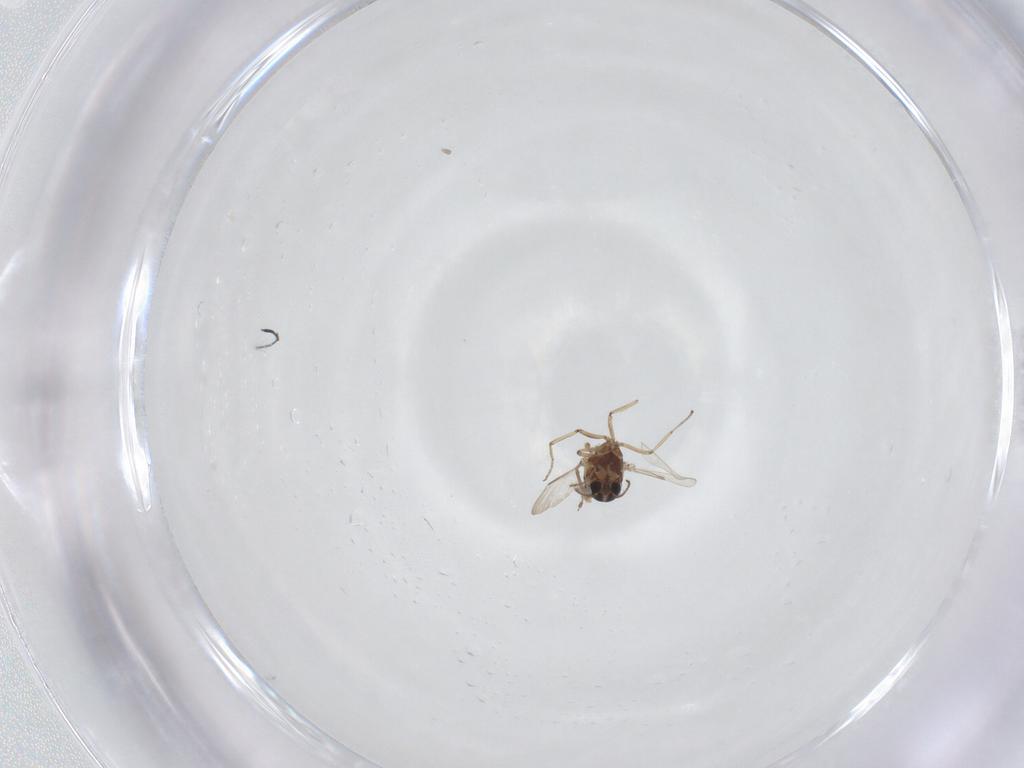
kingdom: Animalia
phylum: Arthropoda
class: Insecta
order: Diptera
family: Ceratopogonidae
